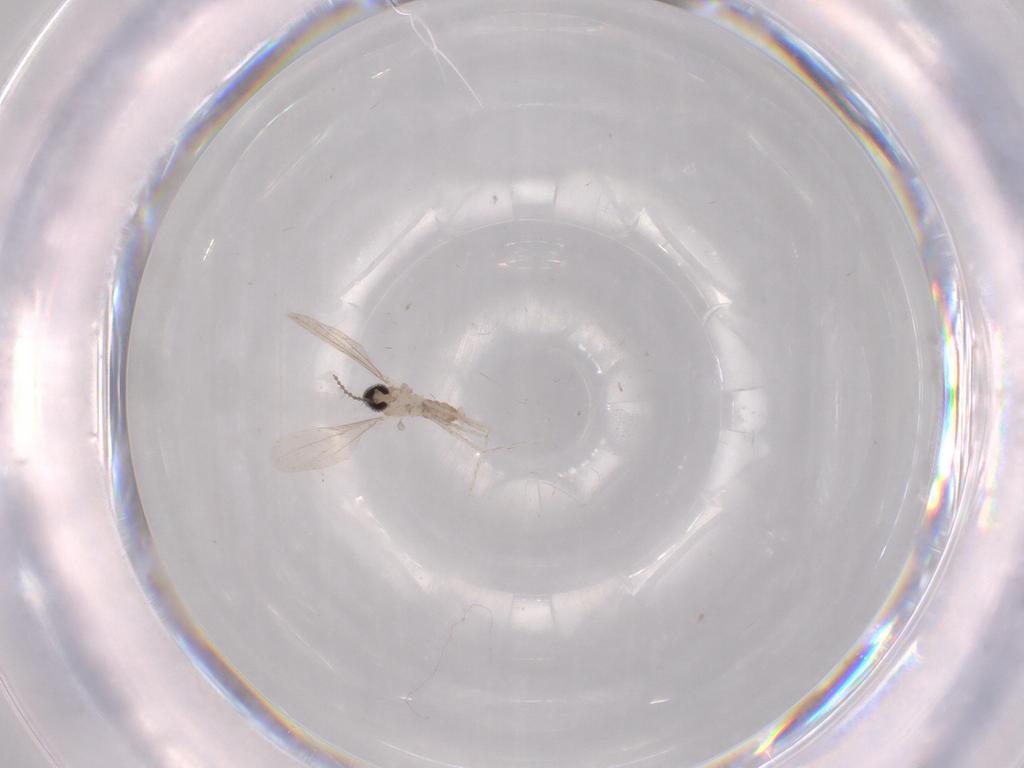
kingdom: Animalia
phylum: Arthropoda
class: Insecta
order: Diptera
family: Cecidomyiidae
